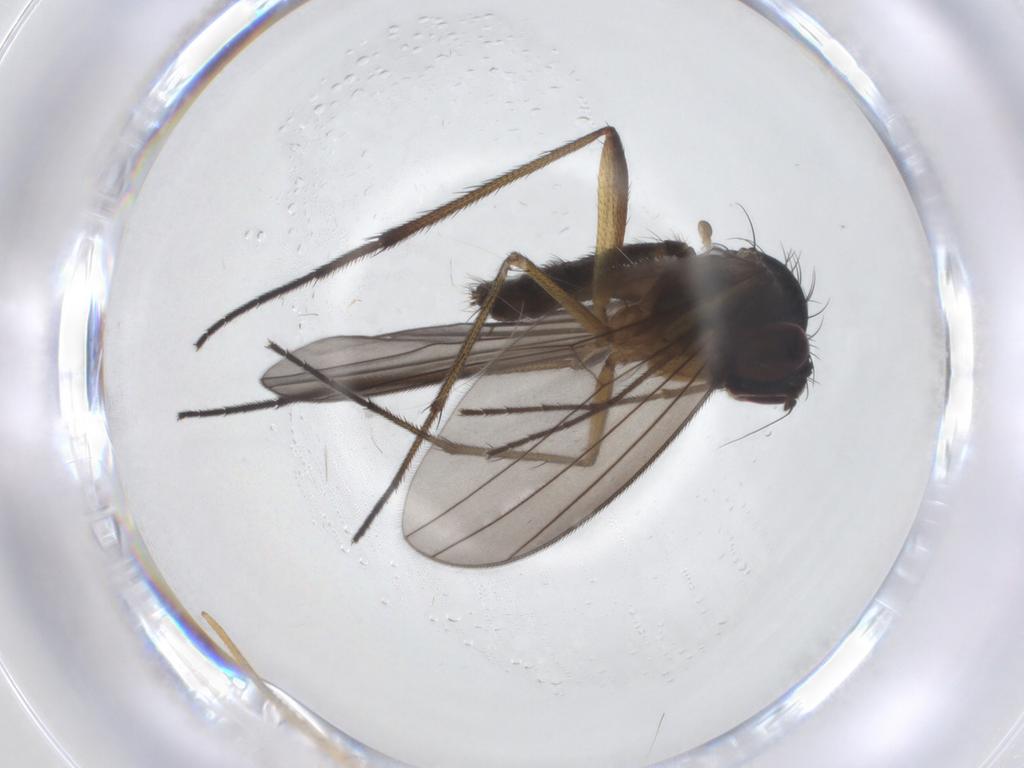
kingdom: Animalia
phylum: Arthropoda
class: Insecta
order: Diptera
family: Dolichopodidae
